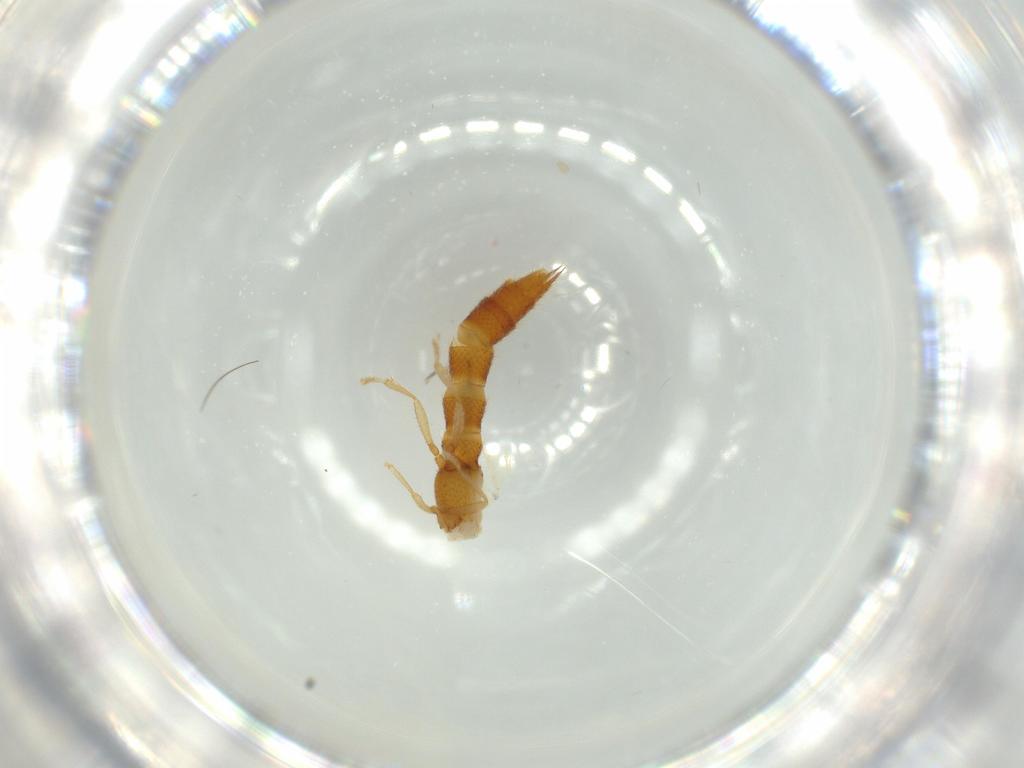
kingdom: Animalia
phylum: Arthropoda
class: Insecta
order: Coleoptera
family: Staphylinidae
